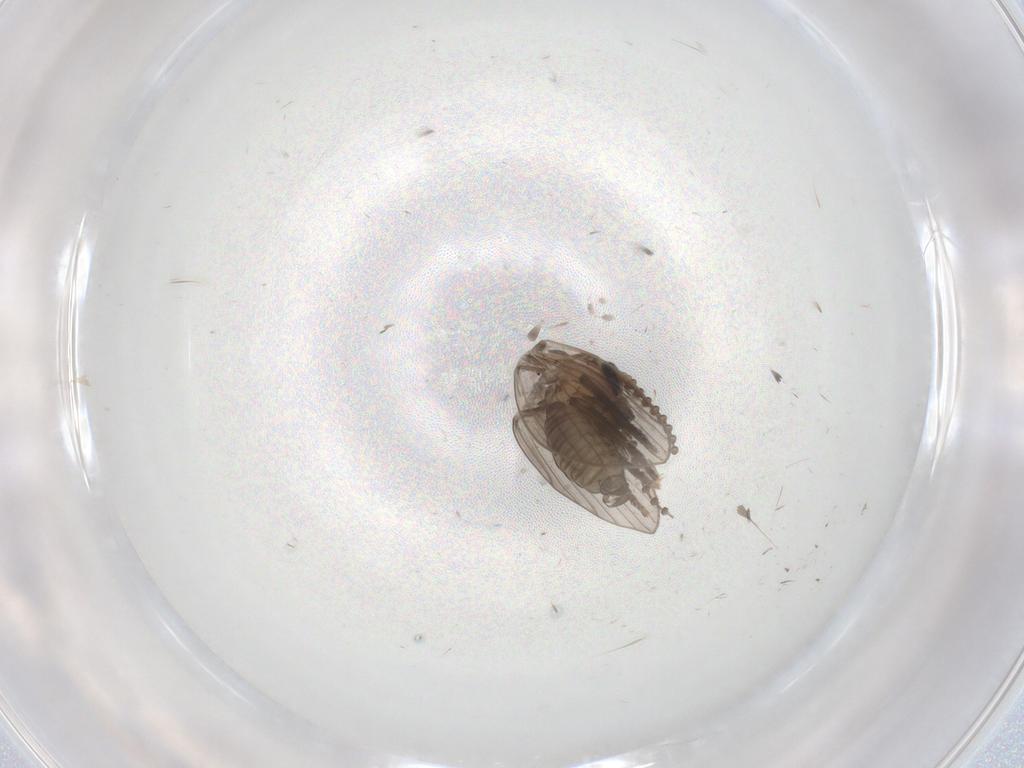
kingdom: Animalia
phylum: Arthropoda
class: Insecta
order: Diptera
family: Psychodidae
